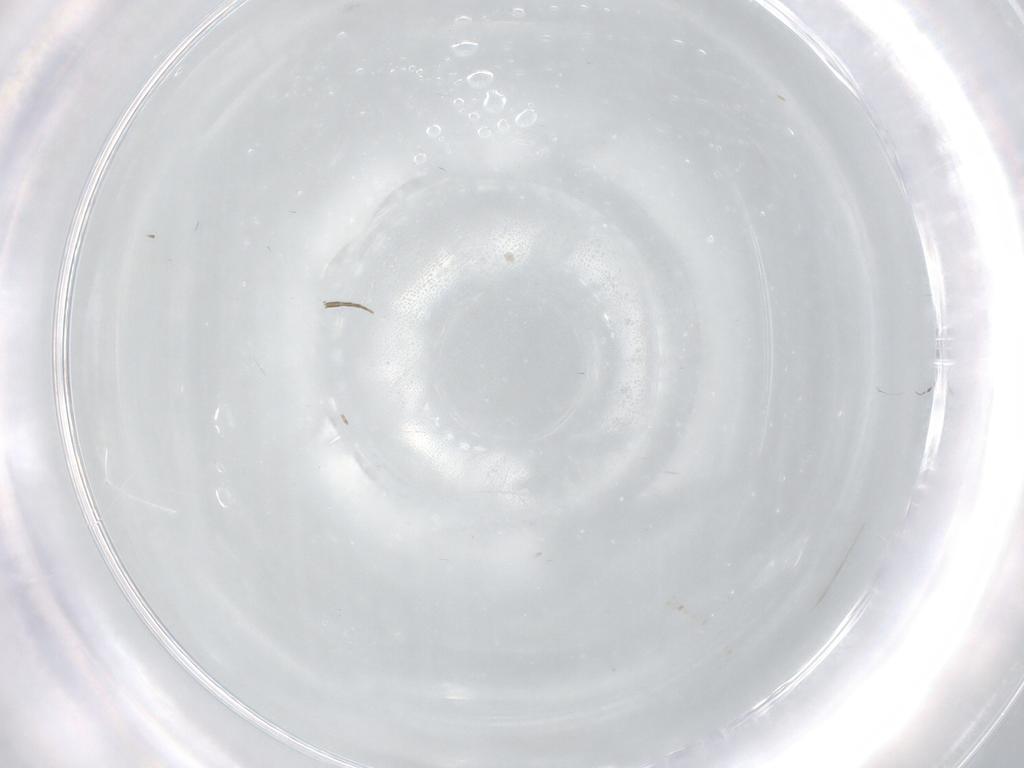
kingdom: Animalia
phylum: Arthropoda
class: Insecta
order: Diptera
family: Cecidomyiidae
